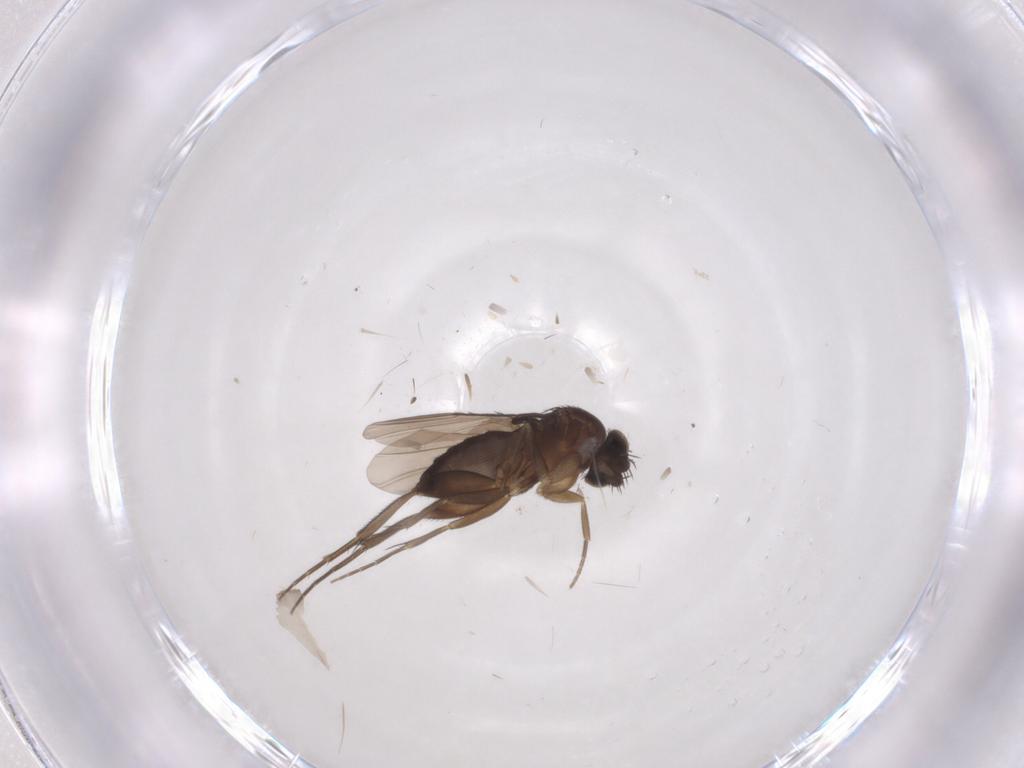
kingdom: Animalia
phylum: Arthropoda
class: Insecta
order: Diptera
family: Phoridae
